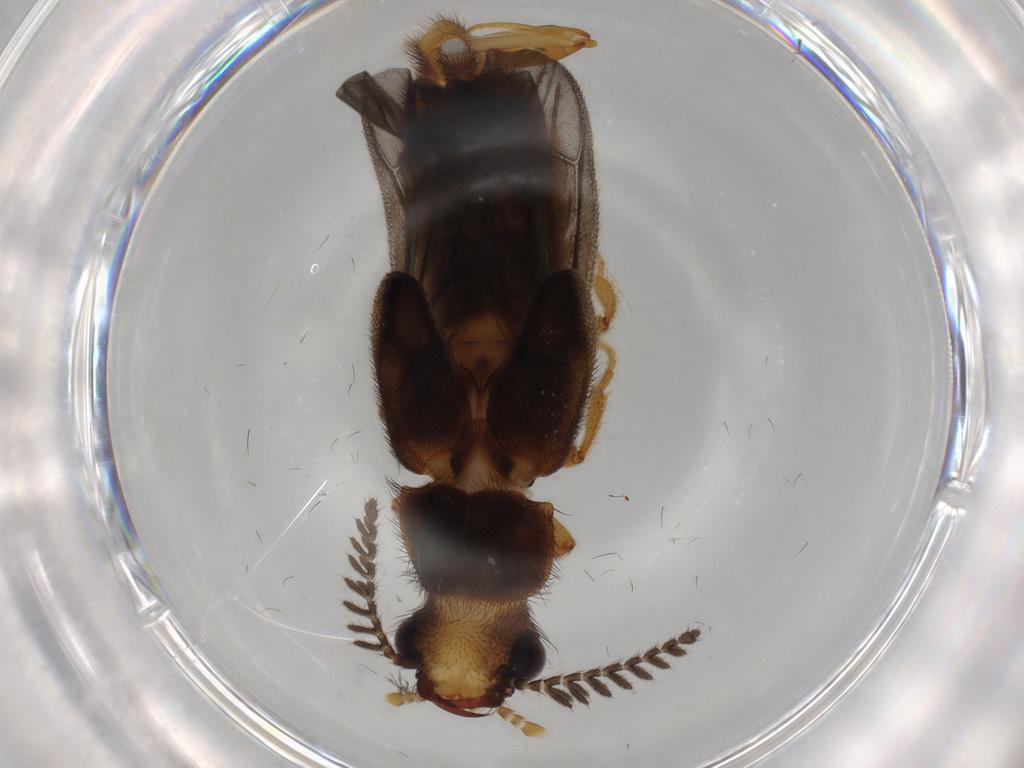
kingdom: Animalia
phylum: Arthropoda
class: Insecta
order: Coleoptera
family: Phengodidae
